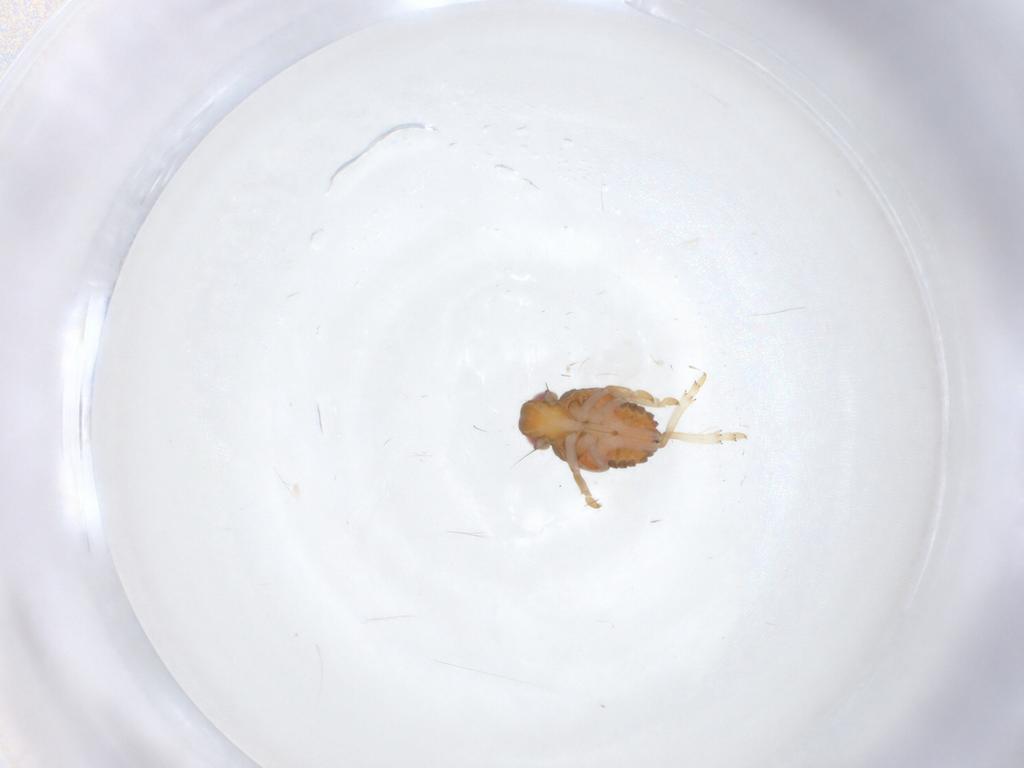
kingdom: Animalia
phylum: Arthropoda
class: Insecta
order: Hemiptera
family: Issidae
